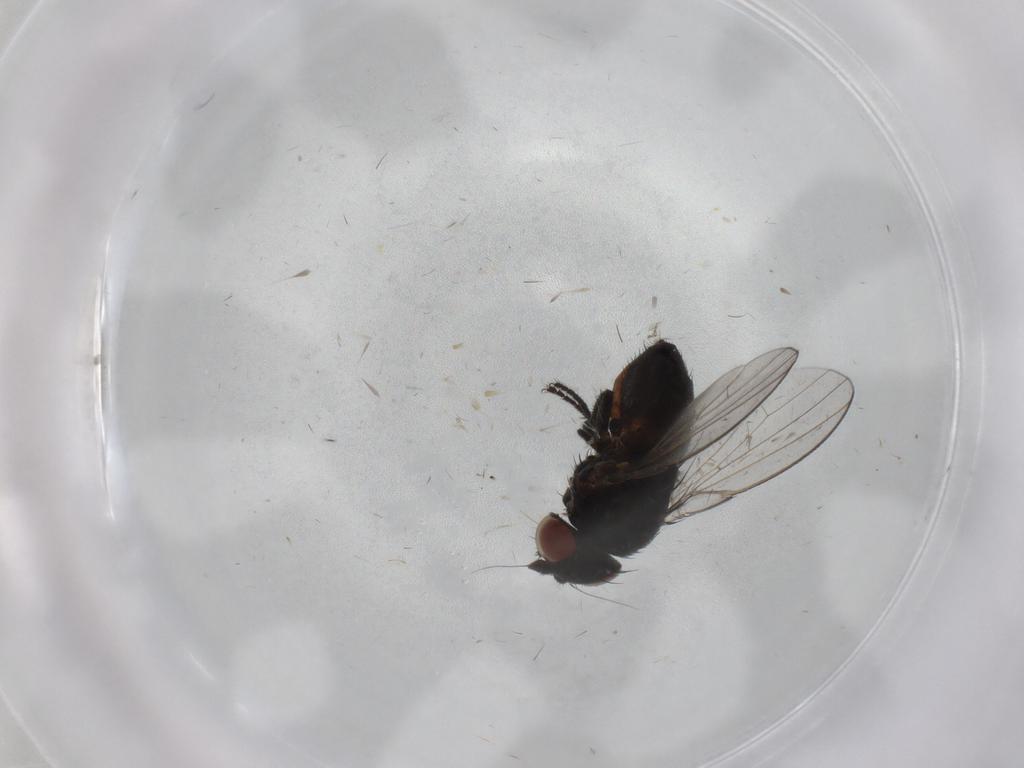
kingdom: Animalia
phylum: Arthropoda
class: Insecta
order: Diptera
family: Milichiidae
